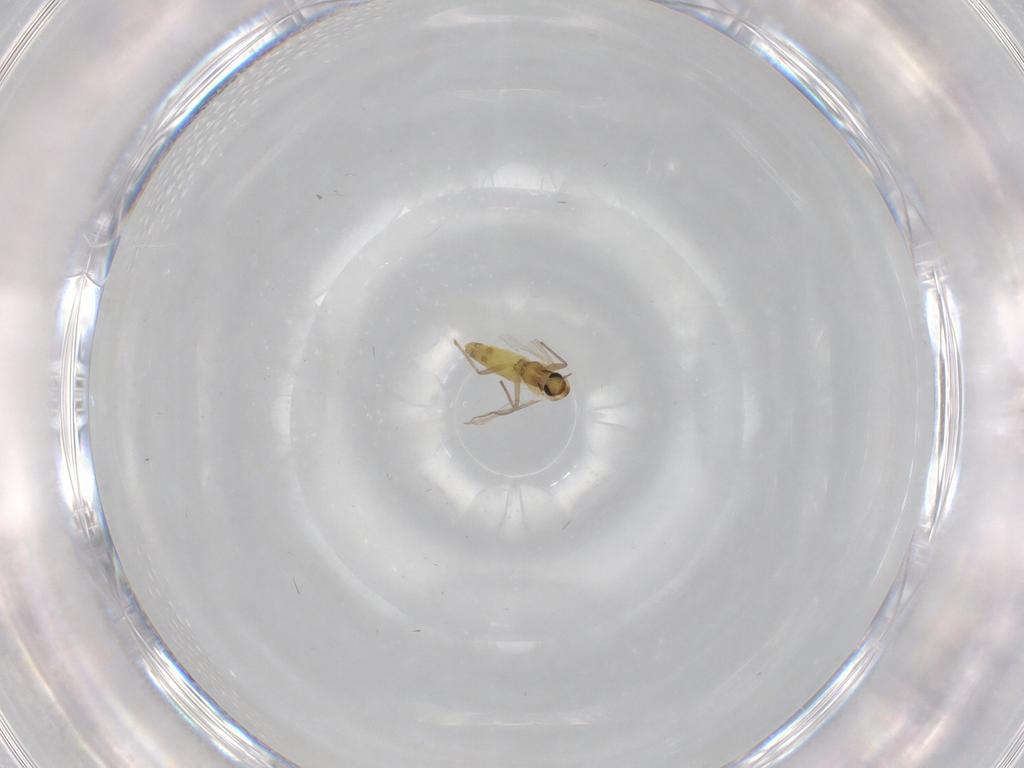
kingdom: Animalia
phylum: Arthropoda
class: Insecta
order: Diptera
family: Chironomidae
